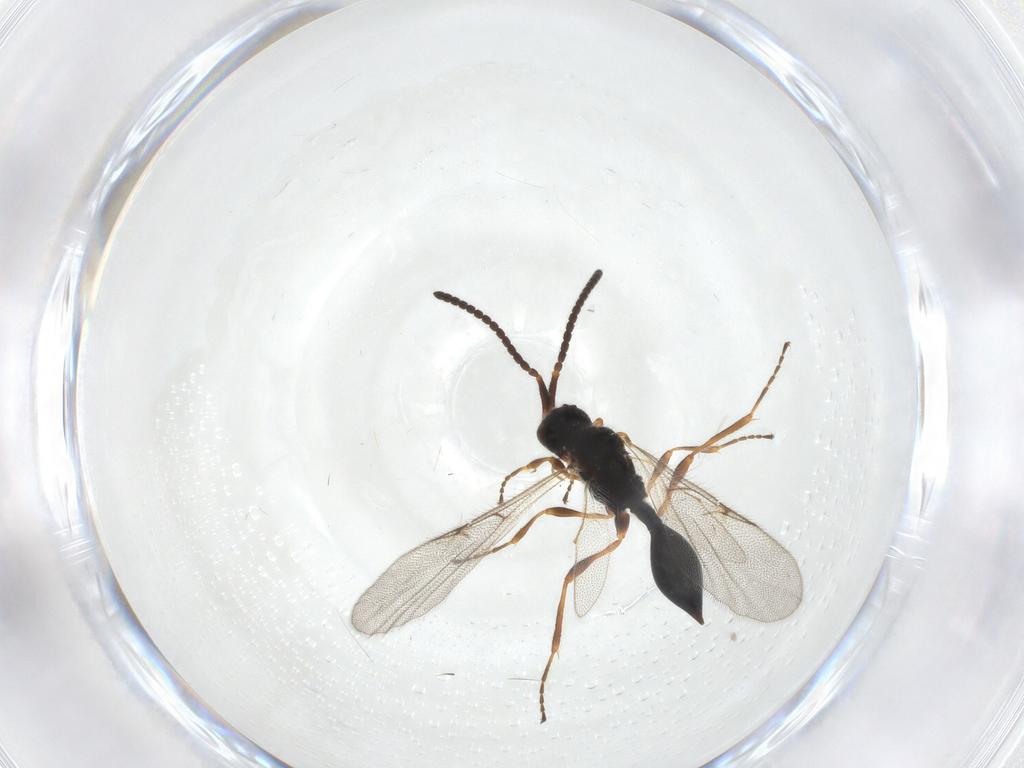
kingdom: Animalia
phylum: Arthropoda
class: Insecta
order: Hymenoptera
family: Diapriidae
